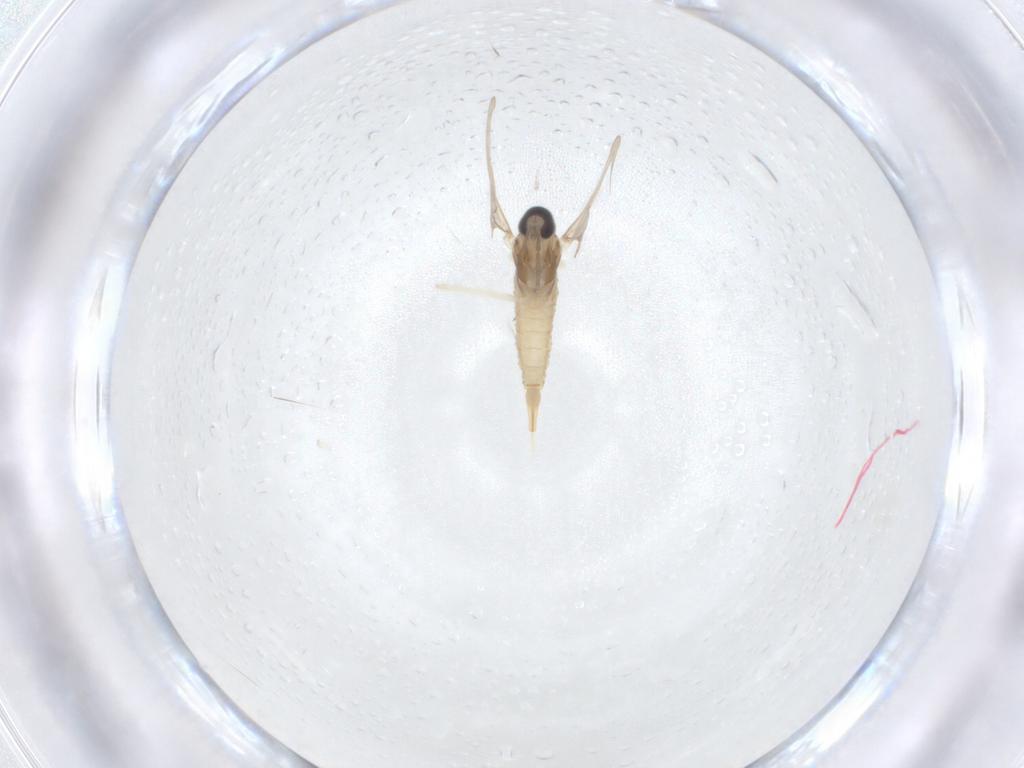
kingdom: Animalia
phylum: Arthropoda
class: Insecta
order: Diptera
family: Cecidomyiidae
